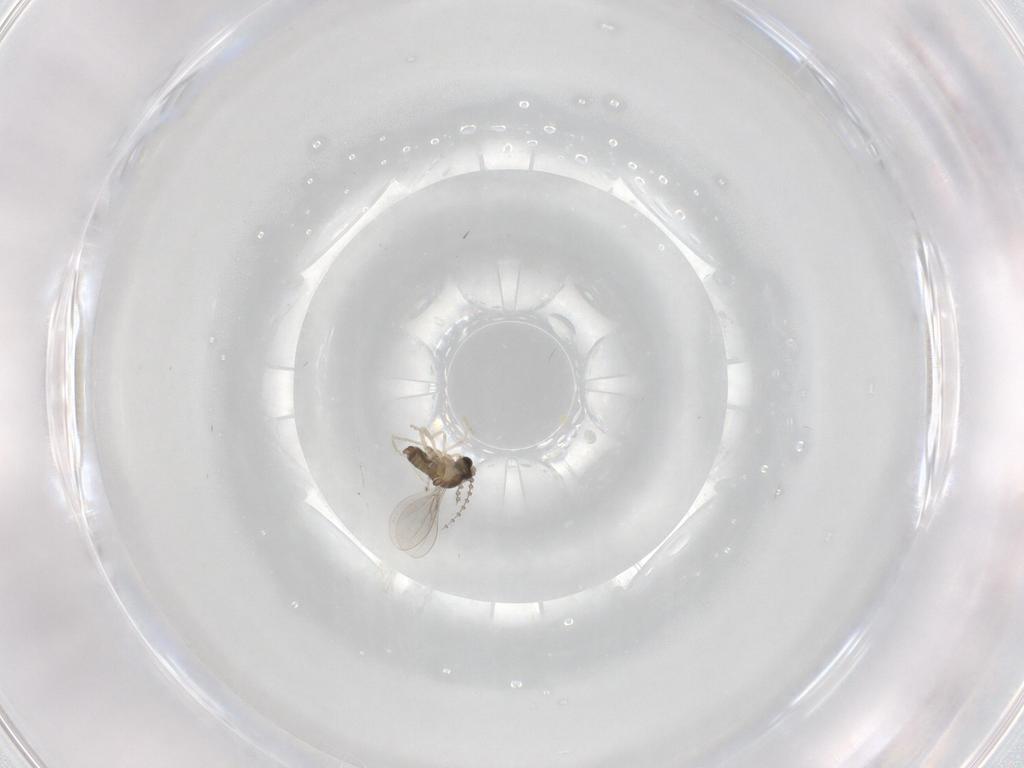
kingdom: Animalia
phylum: Arthropoda
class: Insecta
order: Diptera
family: Cecidomyiidae
